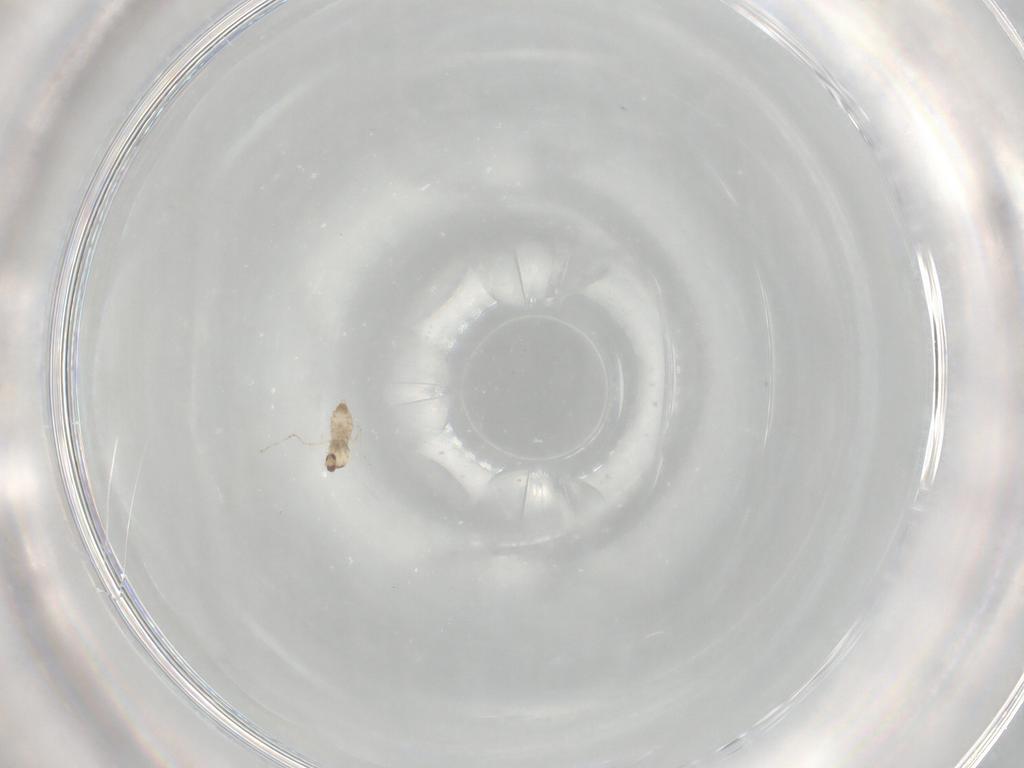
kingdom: Animalia
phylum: Arthropoda
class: Insecta
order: Diptera
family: Cecidomyiidae
